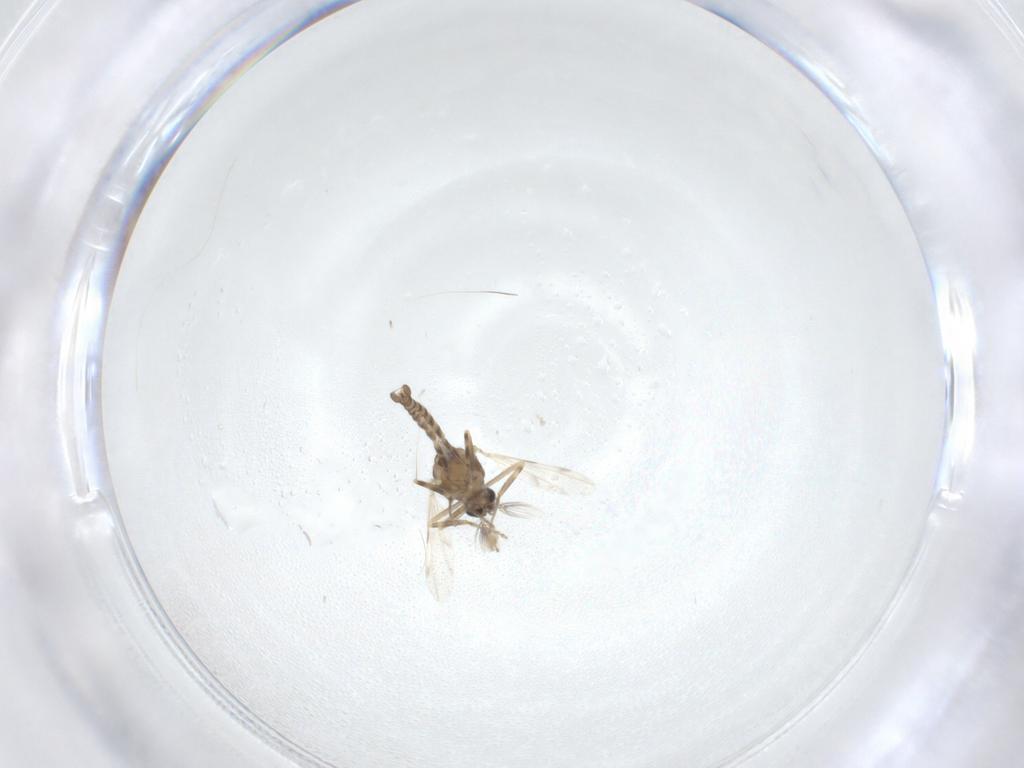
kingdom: Animalia
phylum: Arthropoda
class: Insecta
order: Diptera
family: Ceratopogonidae
